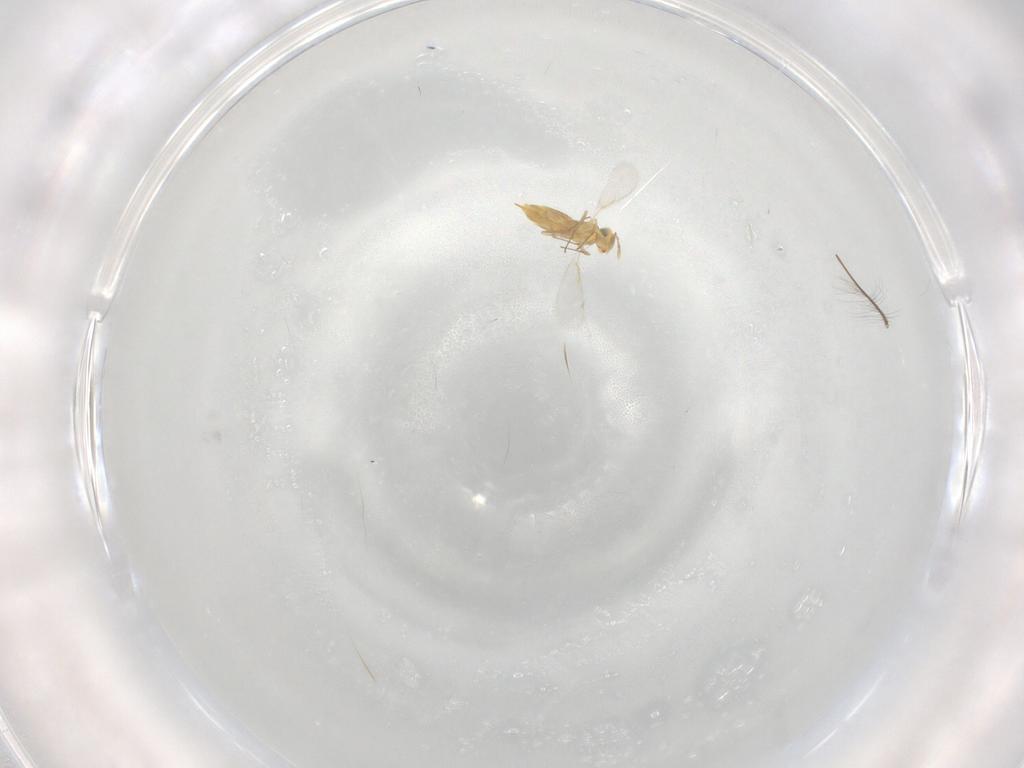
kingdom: Animalia
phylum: Arthropoda
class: Insecta
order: Hymenoptera
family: Aphelinidae
